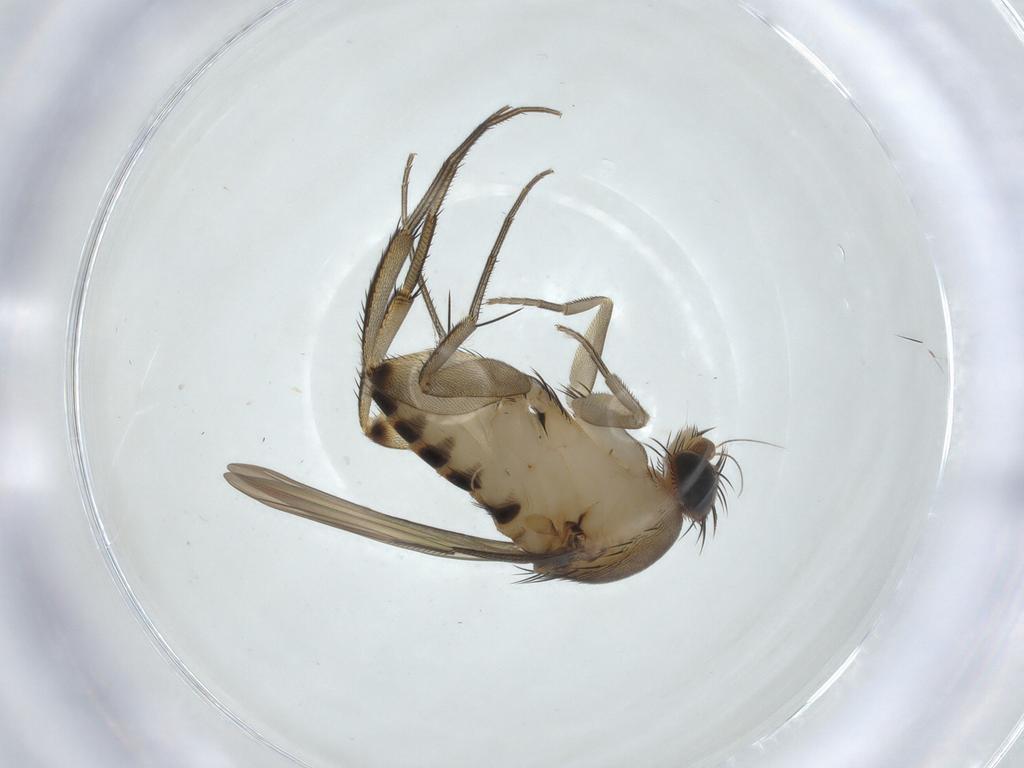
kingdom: Animalia
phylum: Arthropoda
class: Insecta
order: Diptera
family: Phoridae
